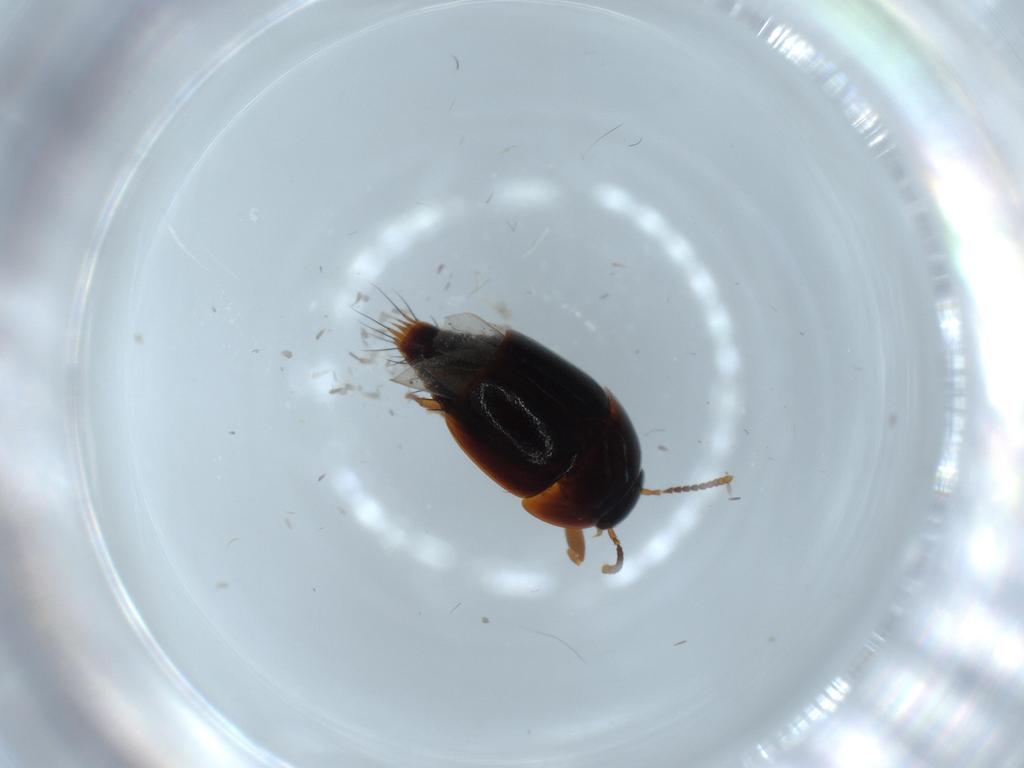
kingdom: Animalia
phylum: Arthropoda
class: Insecta
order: Coleoptera
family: Staphylinidae
